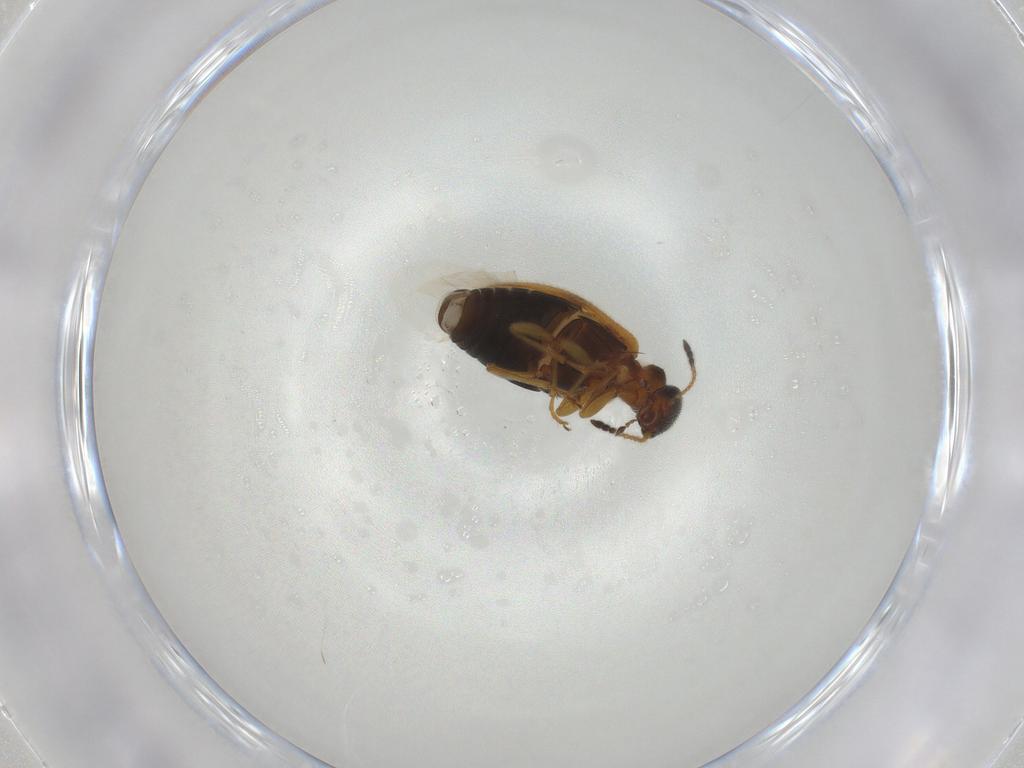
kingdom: Animalia
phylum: Arthropoda
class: Insecta
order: Coleoptera
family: Anthicidae
